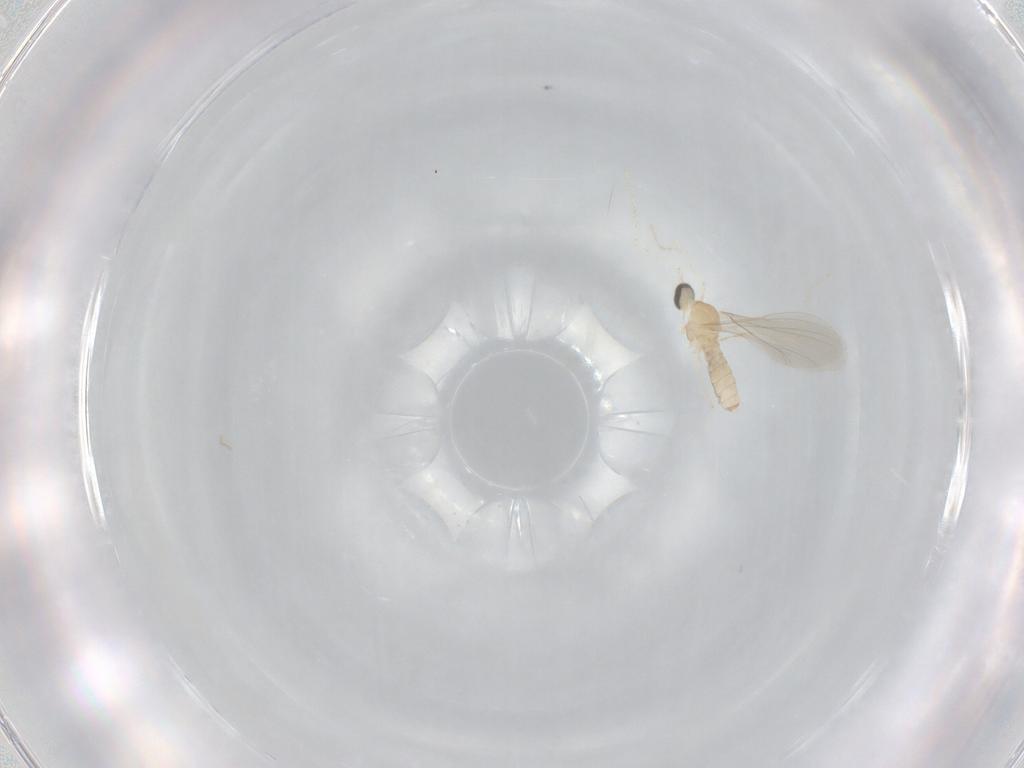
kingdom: Animalia
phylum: Arthropoda
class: Insecta
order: Diptera
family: Cecidomyiidae
